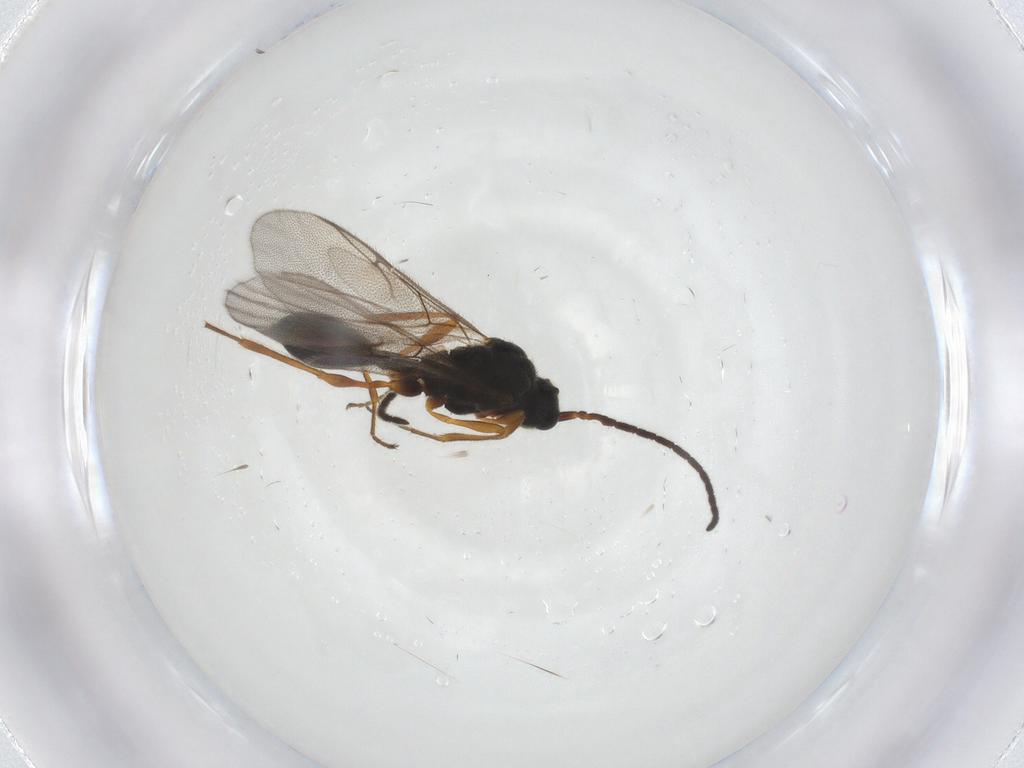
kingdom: Animalia
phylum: Arthropoda
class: Insecta
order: Hymenoptera
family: Diapriidae
